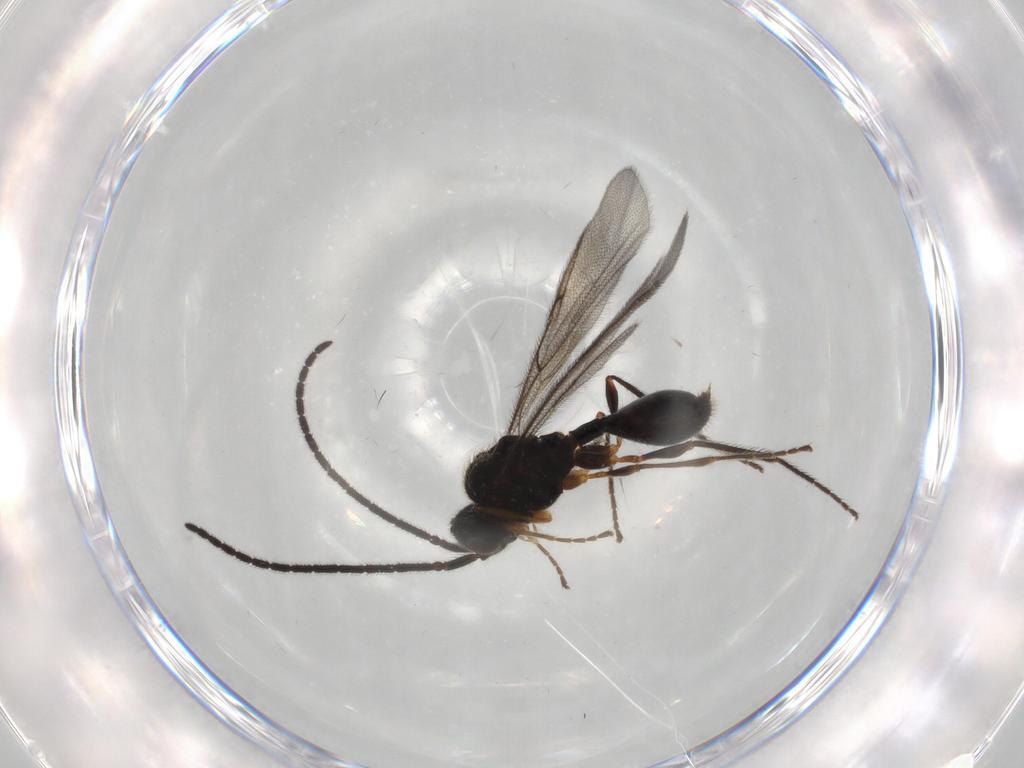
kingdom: Animalia
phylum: Arthropoda
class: Insecta
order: Hymenoptera
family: Diapriidae
